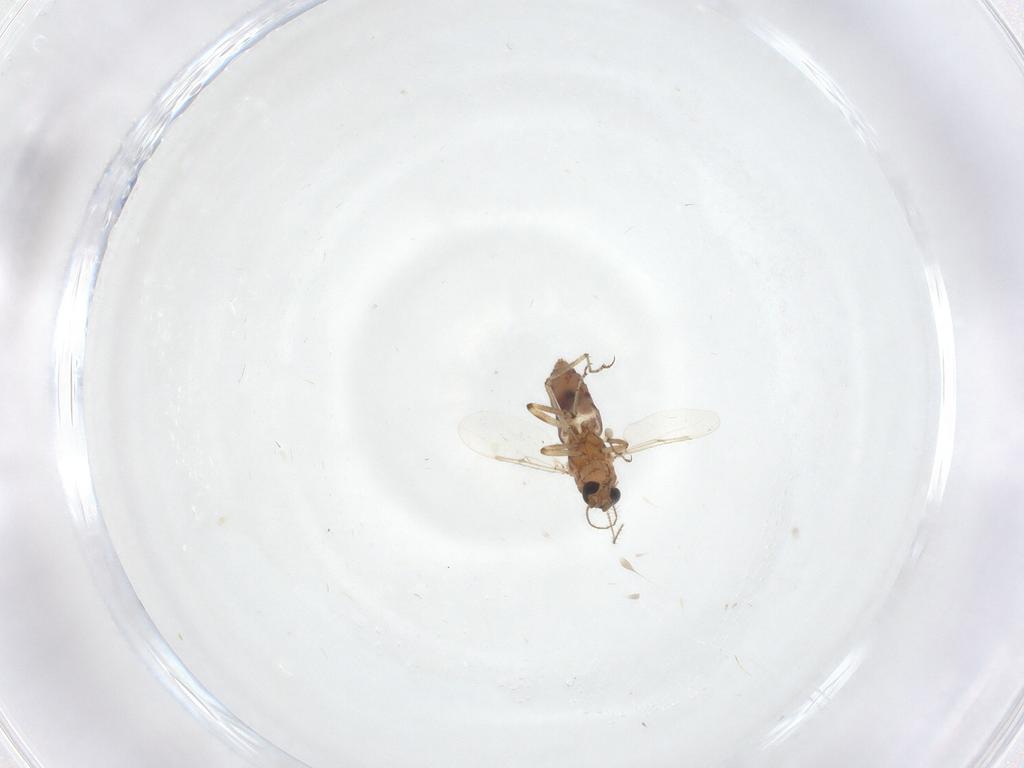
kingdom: Animalia
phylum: Arthropoda
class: Insecta
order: Diptera
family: Ceratopogonidae
